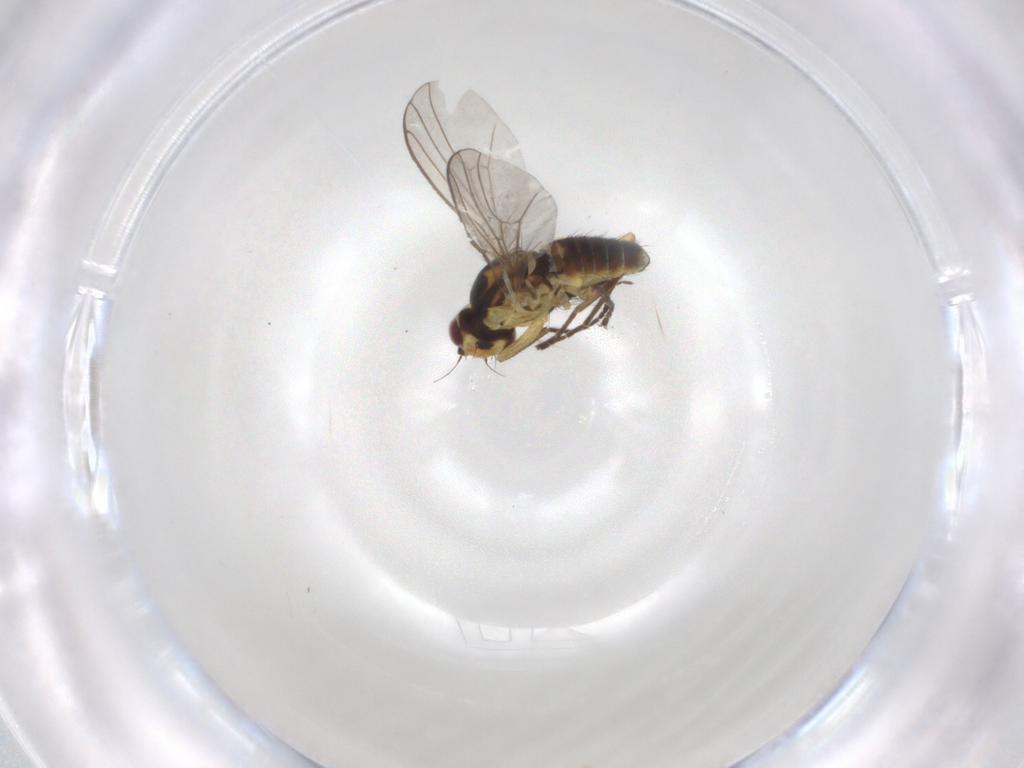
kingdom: Animalia
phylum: Arthropoda
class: Insecta
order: Diptera
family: Agromyzidae
